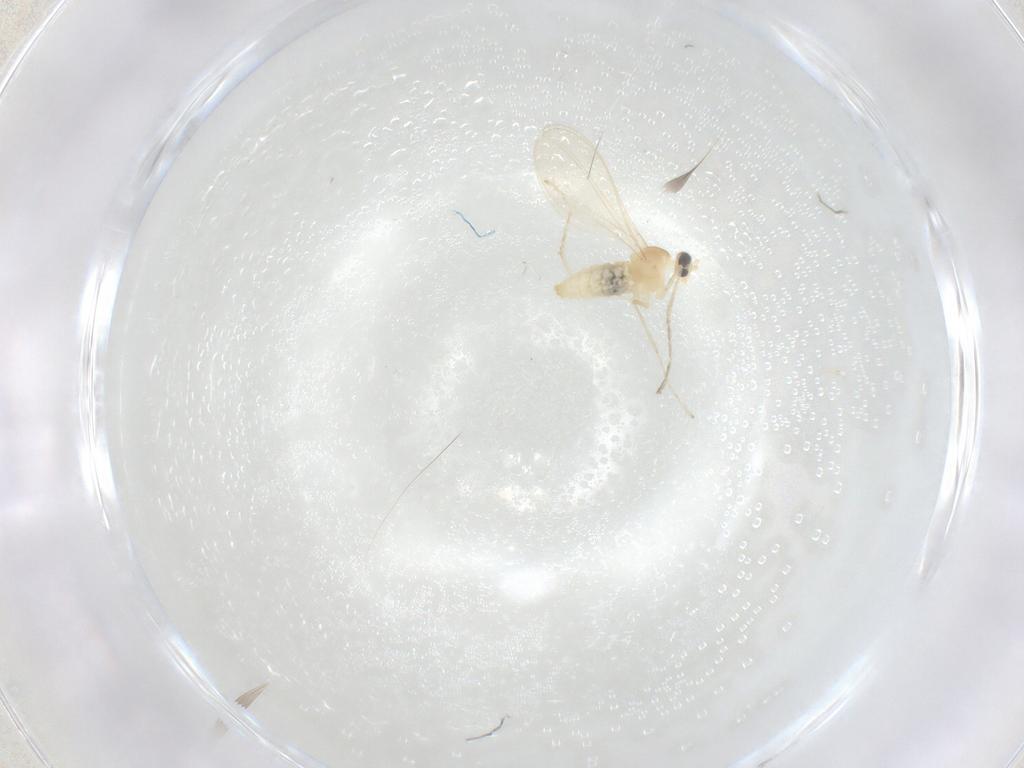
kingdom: Animalia
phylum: Arthropoda
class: Insecta
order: Diptera
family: Cecidomyiidae
